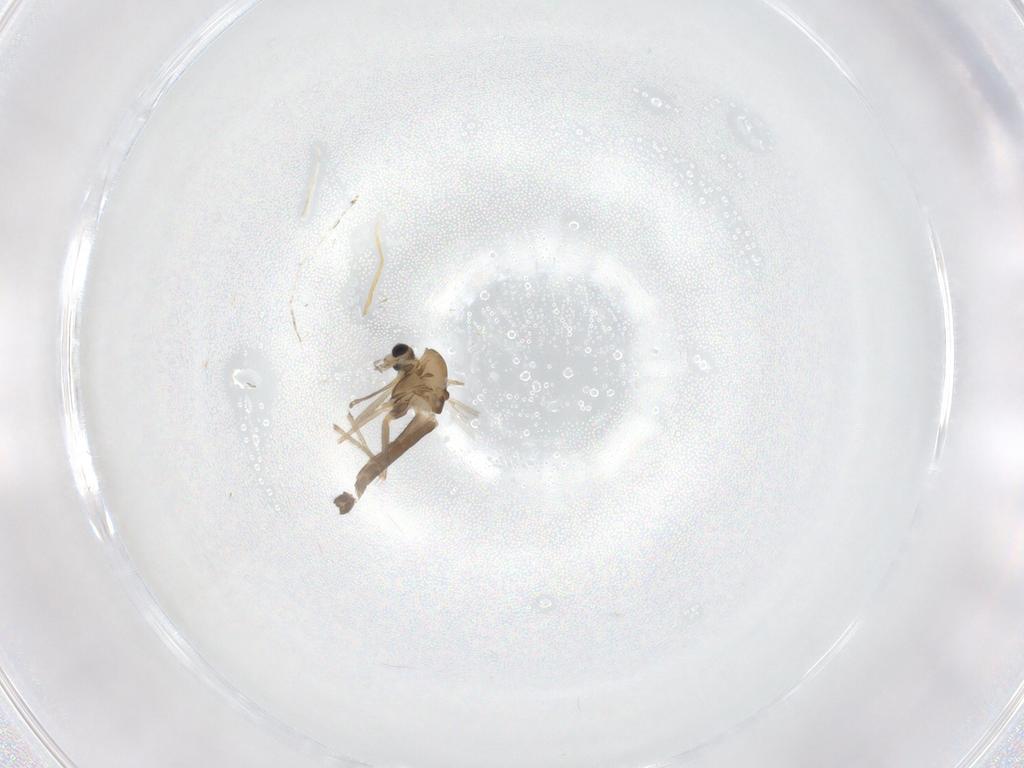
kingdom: Animalia
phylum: Arthropoda
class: Insecta
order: Diptera
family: Chironomidae
